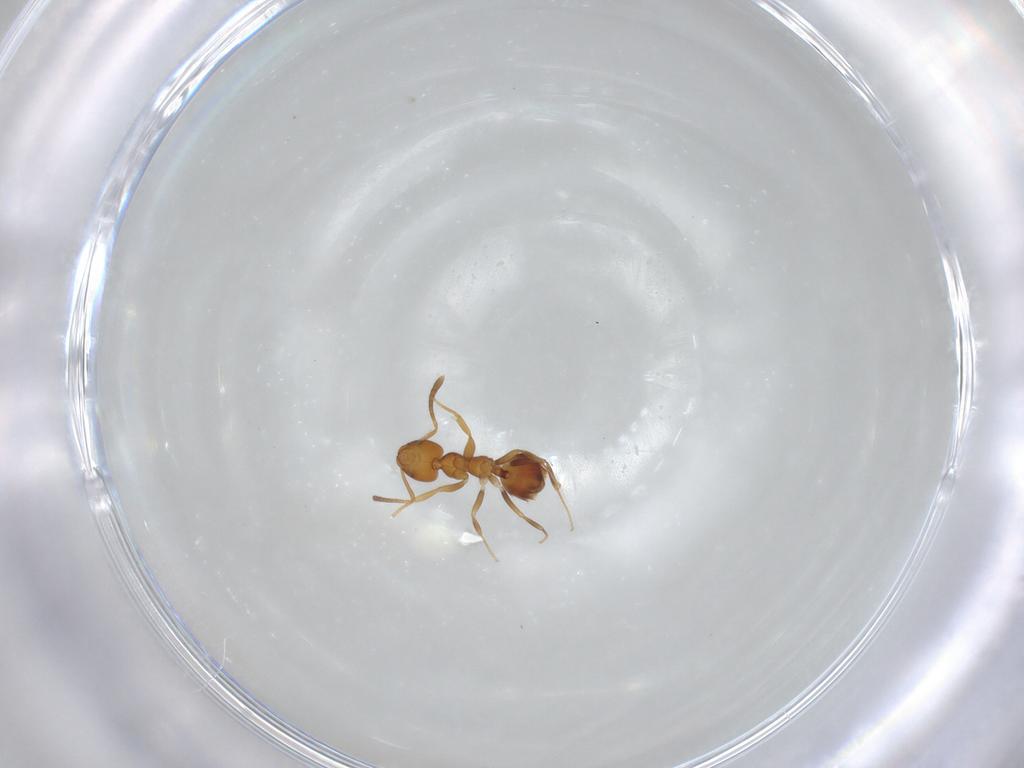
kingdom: Animalia
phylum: Arthropoda
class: Insecta
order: Hymenoptera
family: Formicidae
